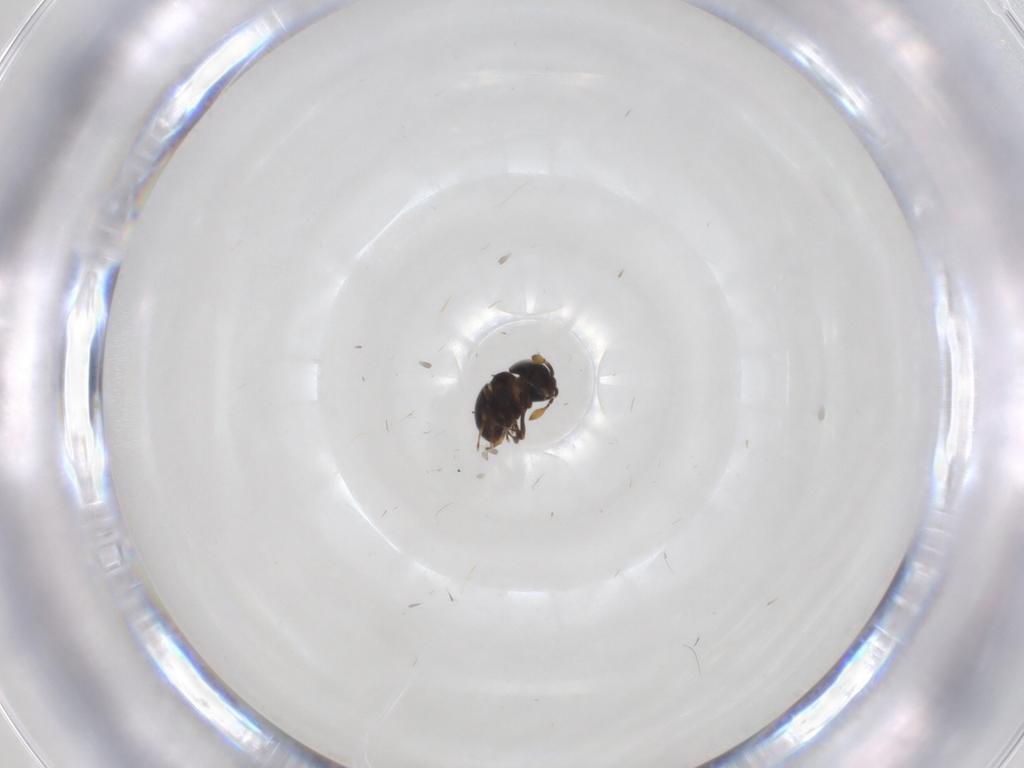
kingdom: Animalia
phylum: Arthropoda
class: Insecta
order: Hymenoptera
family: Scelionidae
